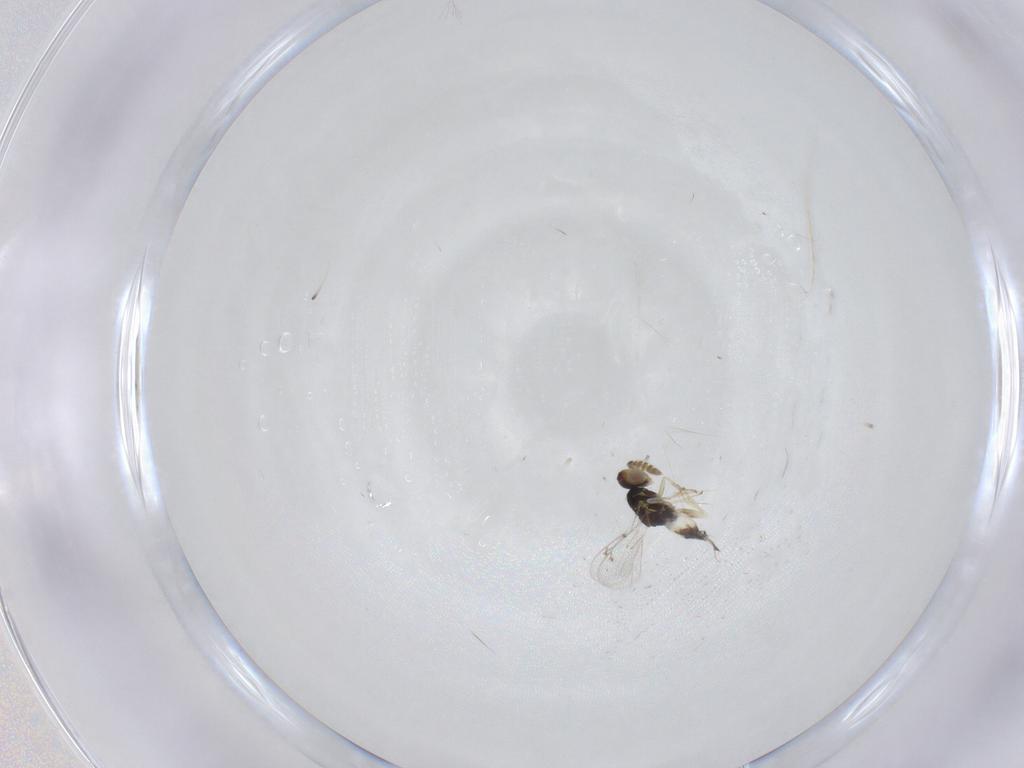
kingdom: Animalia
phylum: Arthropoda
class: Insecta
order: Hymenoptera
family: Eulophidae
